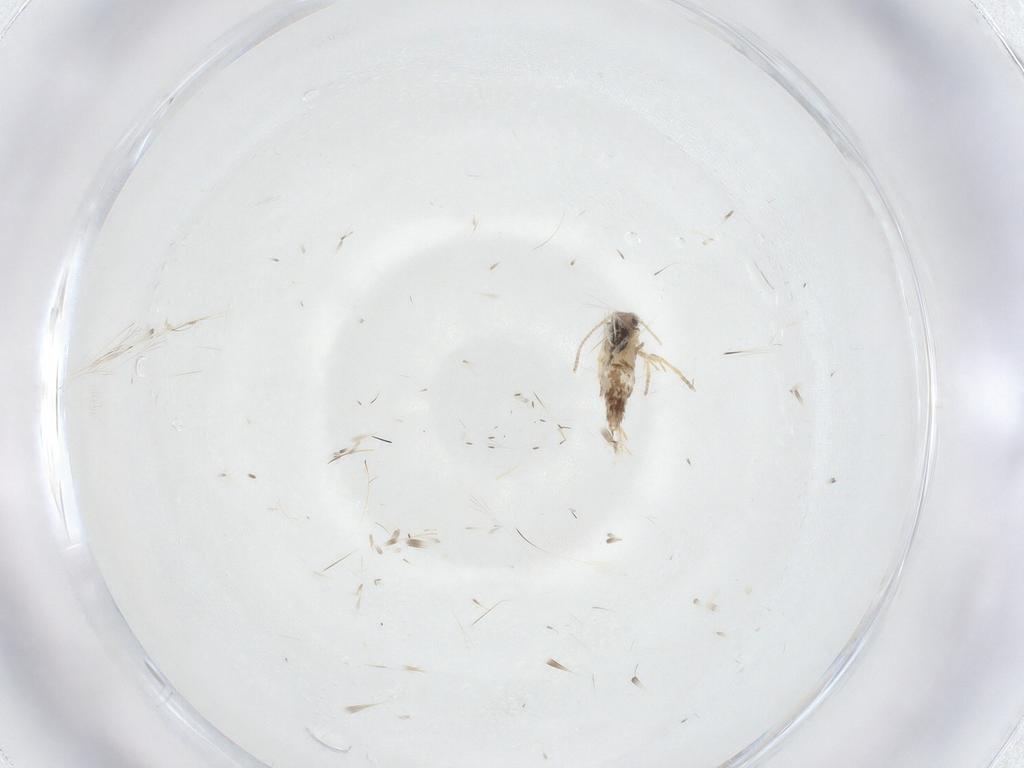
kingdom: Animalia
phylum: Arthropoda
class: Insecta
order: Lepidoptera
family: Nepticulidae
